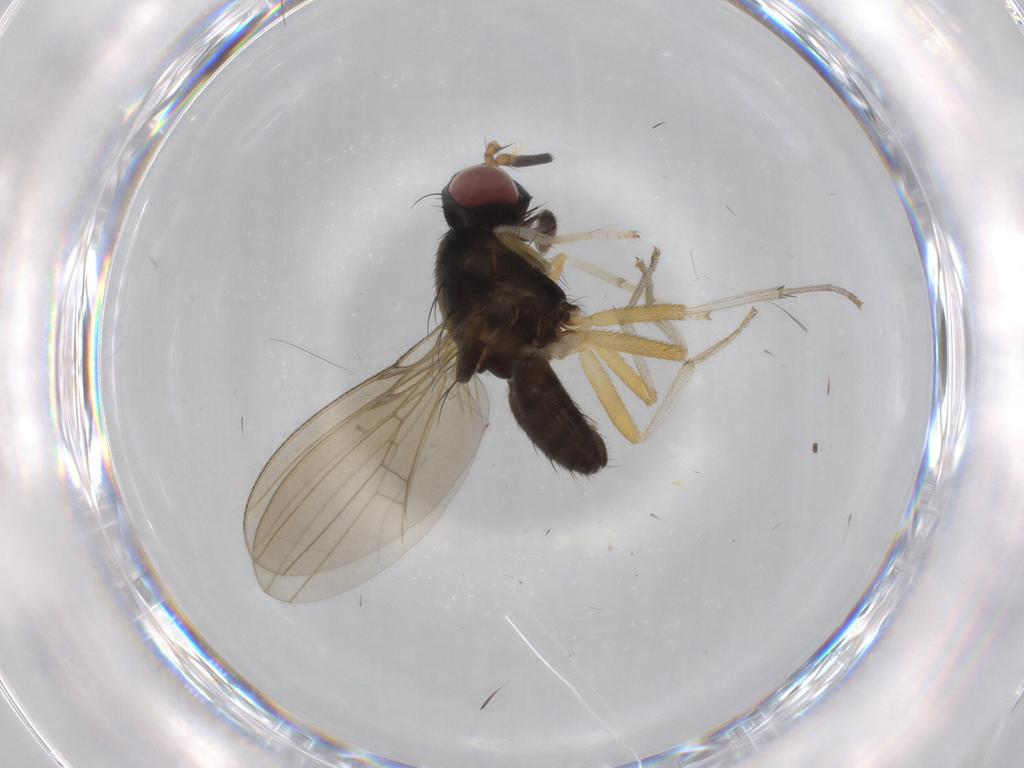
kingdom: Animalia
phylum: Arthropoda
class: Insecta
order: Diptera
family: Lauxaniidae
